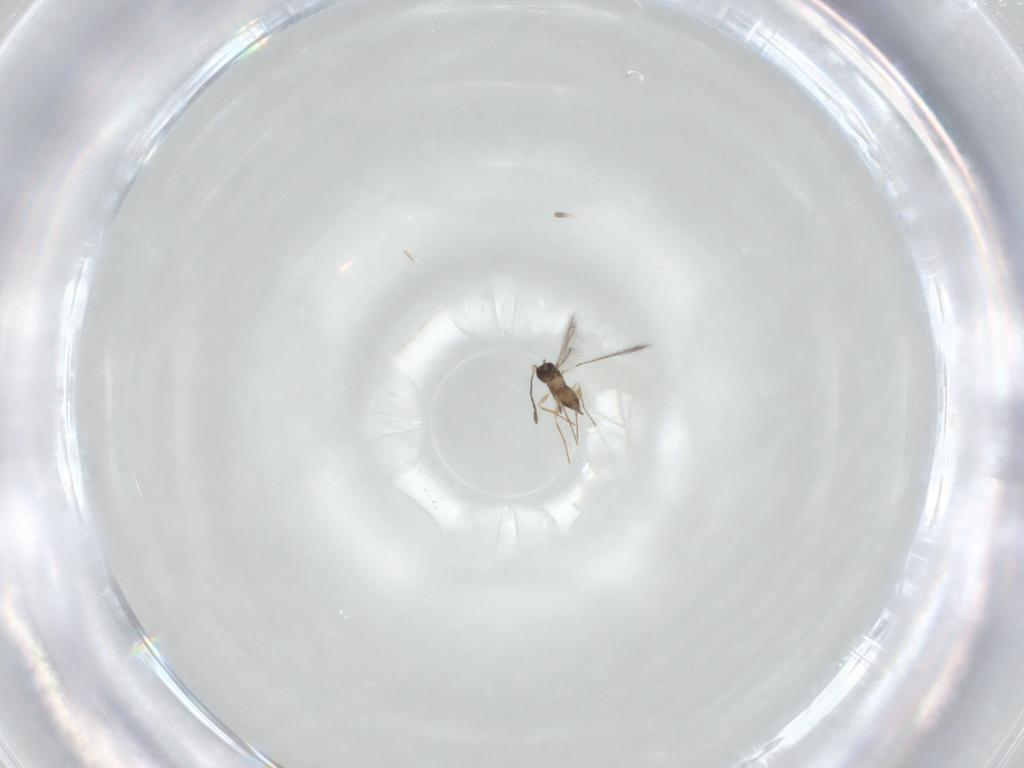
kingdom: Animalia
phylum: Arthropoda
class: Insecta
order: Hymenoptera
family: Mymaridae
